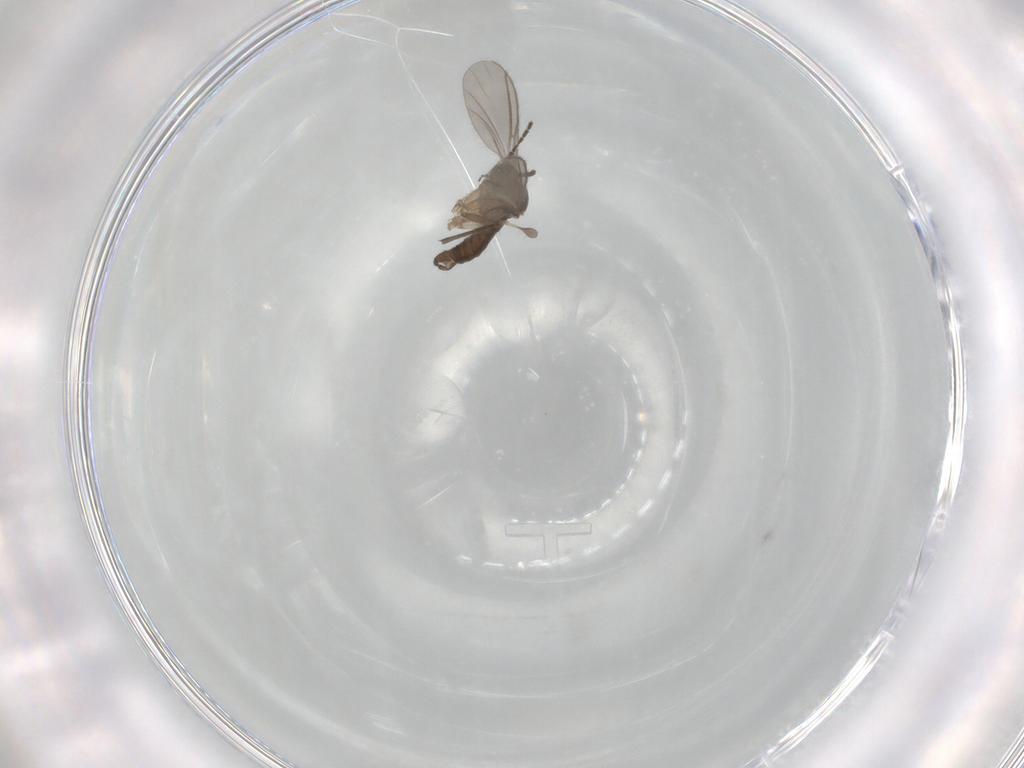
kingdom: Animalia
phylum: Arthropoda
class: Insecta
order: Diptera
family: Sciaridae
